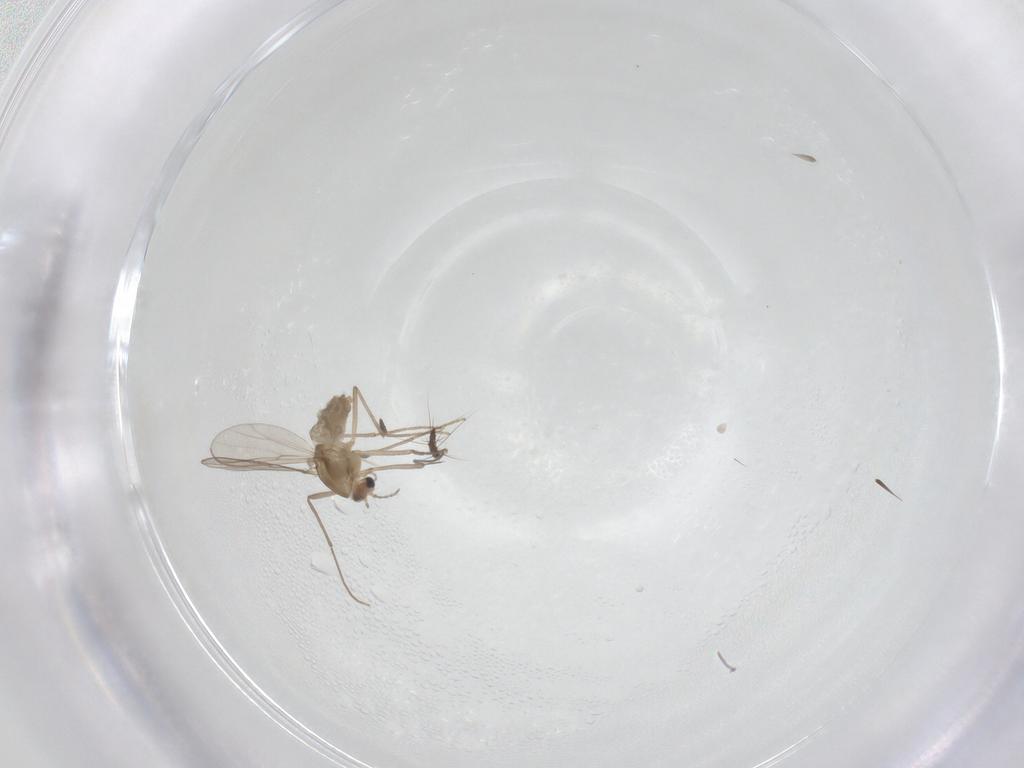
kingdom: Animalia
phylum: Arthropoda
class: Insecta
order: Diptera
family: Chironomidae
